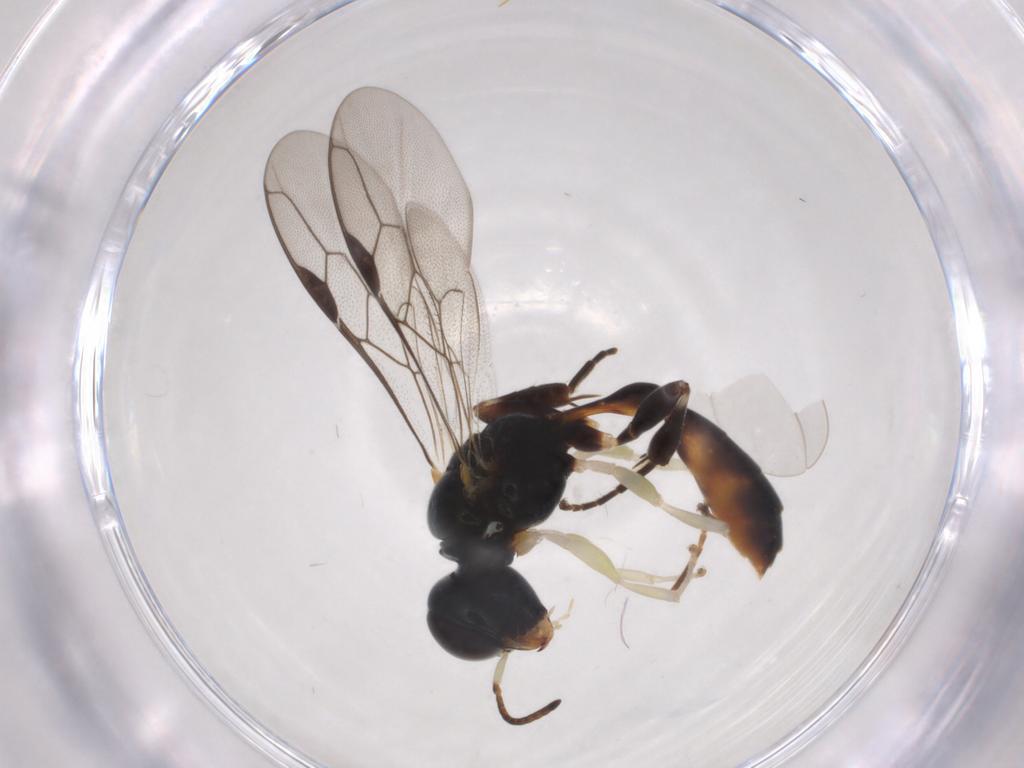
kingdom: Animalia
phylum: Arthropoda
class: Insecta
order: Hymenoptera
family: Crabronidae
